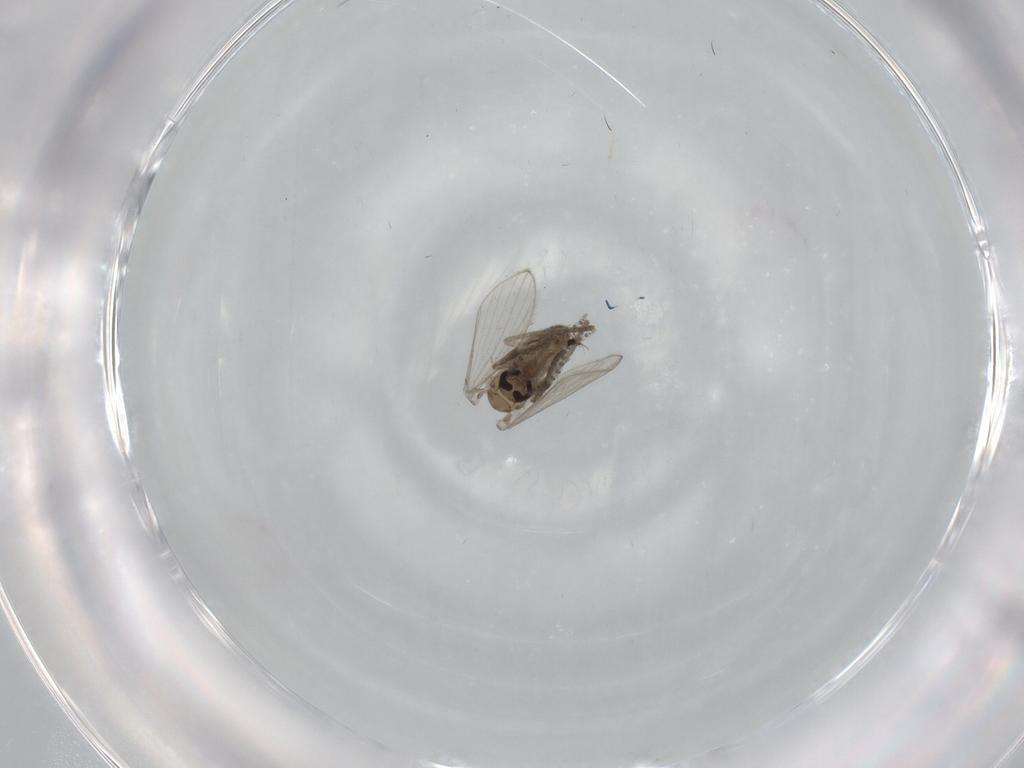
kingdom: Animalia
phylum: Arthropoda
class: Insecta
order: Diptera
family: Psychodidae
